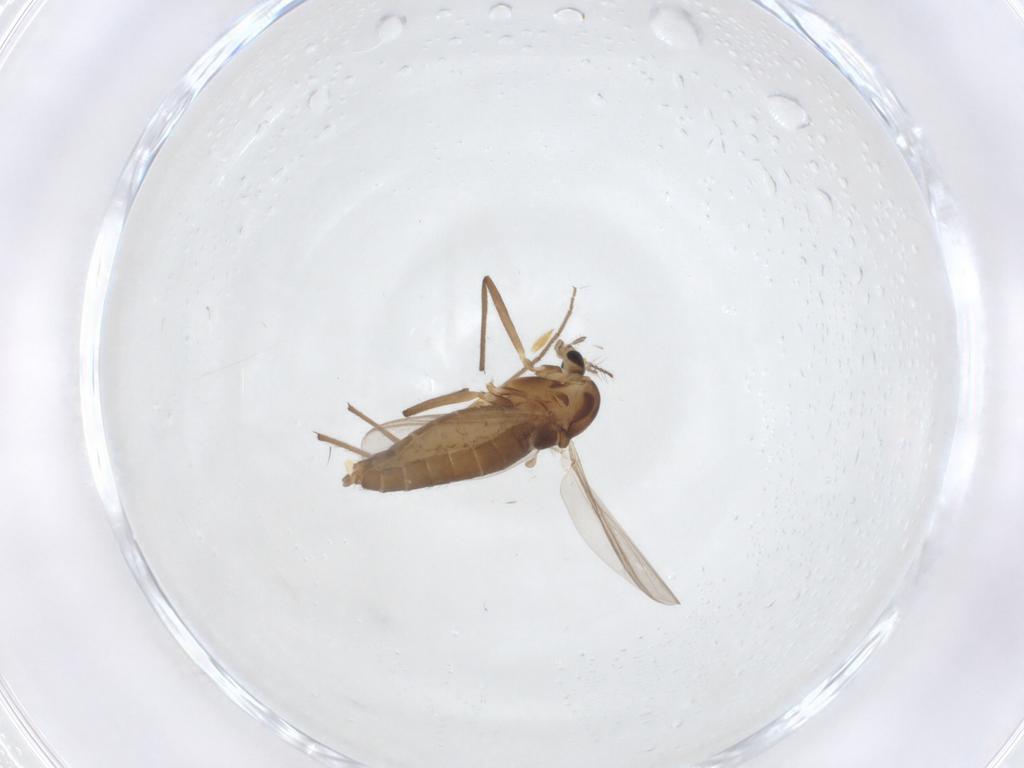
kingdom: Animalia
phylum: Arthropoda
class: Insecta
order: Diptera
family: Chironomidae
